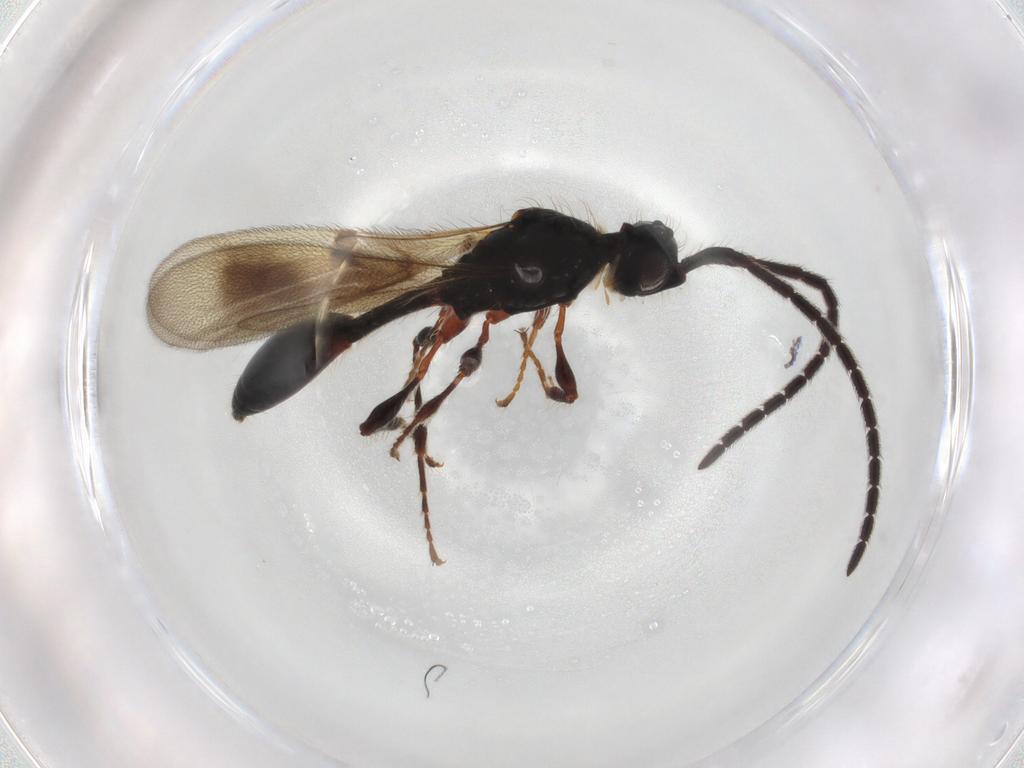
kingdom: Animalia
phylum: Arthropoda
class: Insecta
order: Hymenoptera
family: Diapriidae
